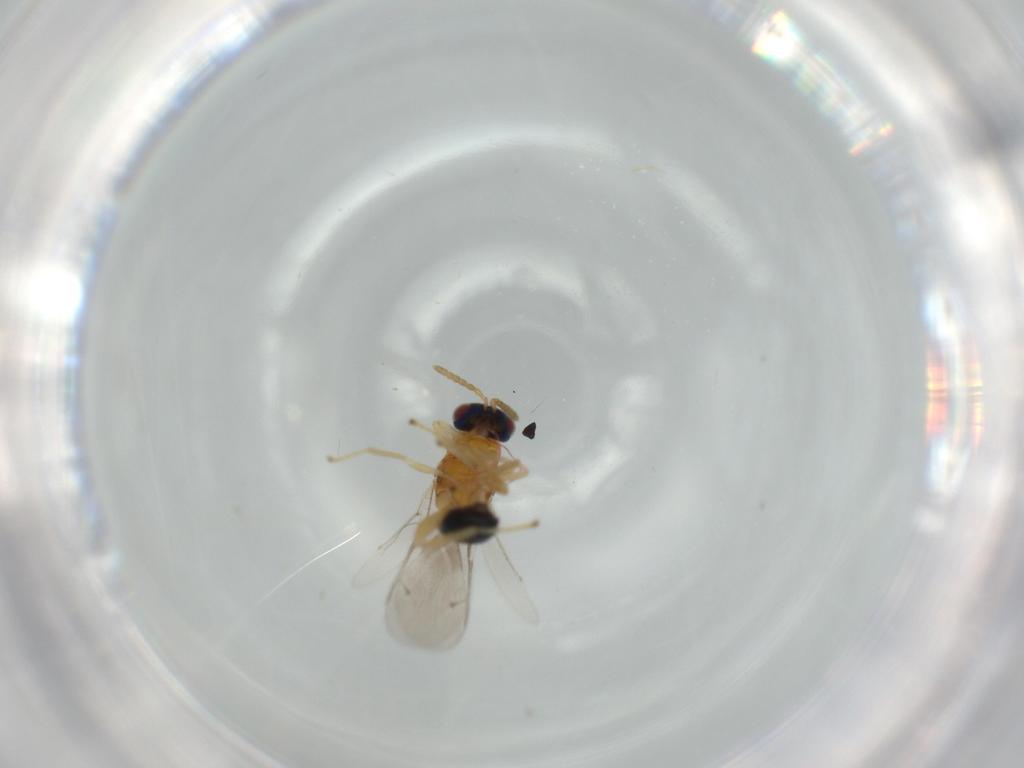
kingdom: Animalia
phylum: Arthropoda
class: Insecta
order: Hymenoptera
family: Torymidae
